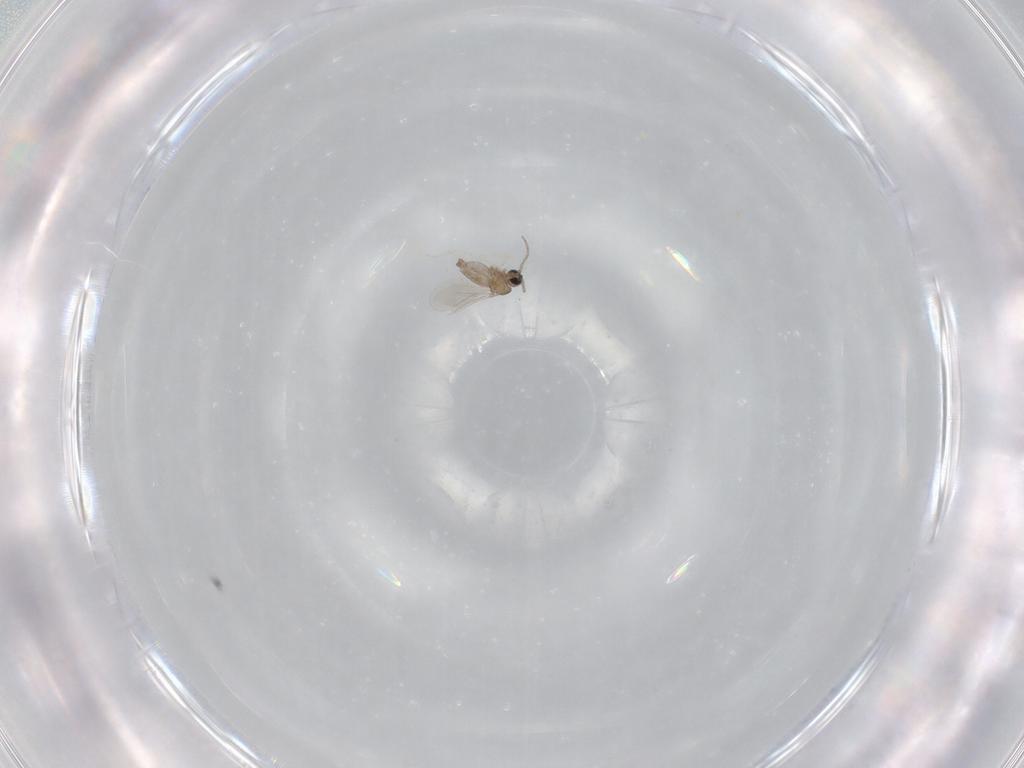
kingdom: Animalia
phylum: Arthropoda
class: Insecta
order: Diptera
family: Cecidomyiidae
